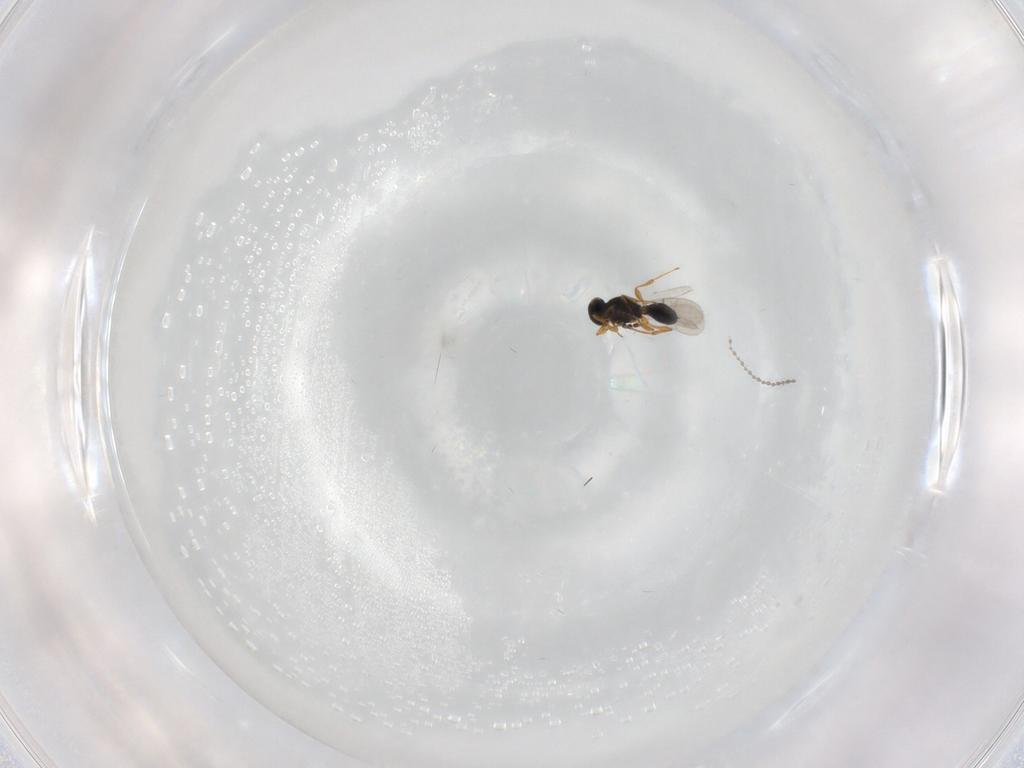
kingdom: Animalia
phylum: Arthropoda
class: Insecta
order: Hymenoptera
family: Platygastridae
